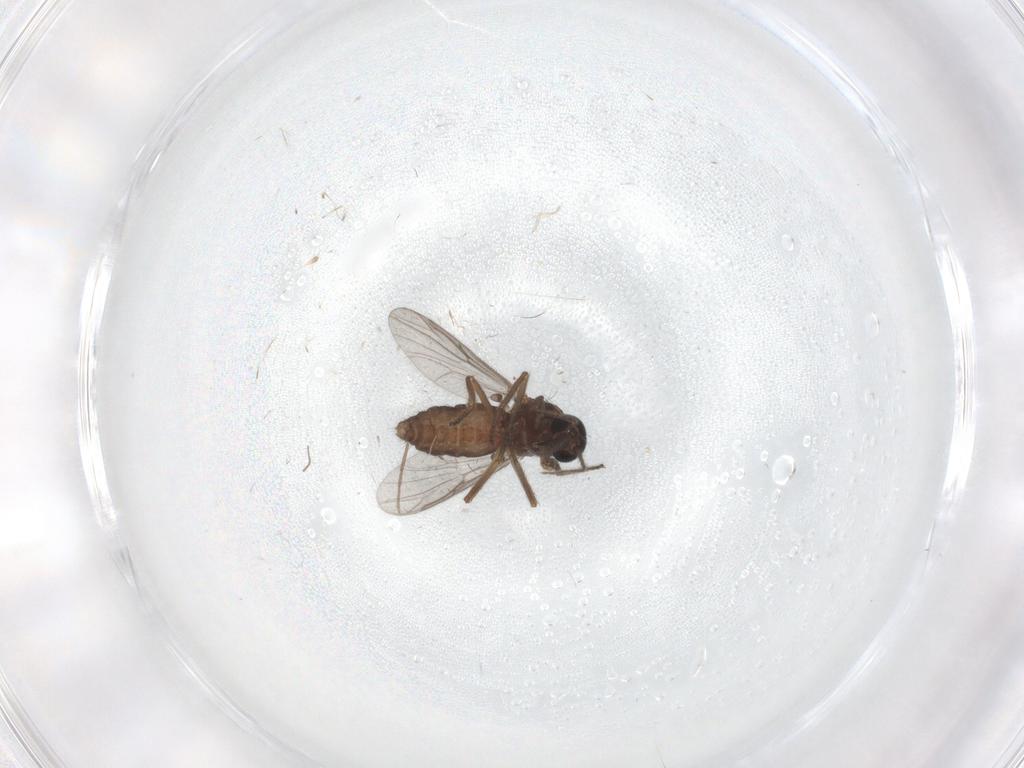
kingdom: Animalia
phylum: Arthropoda
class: Insecta
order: Diptera
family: Ceratopogonidae
